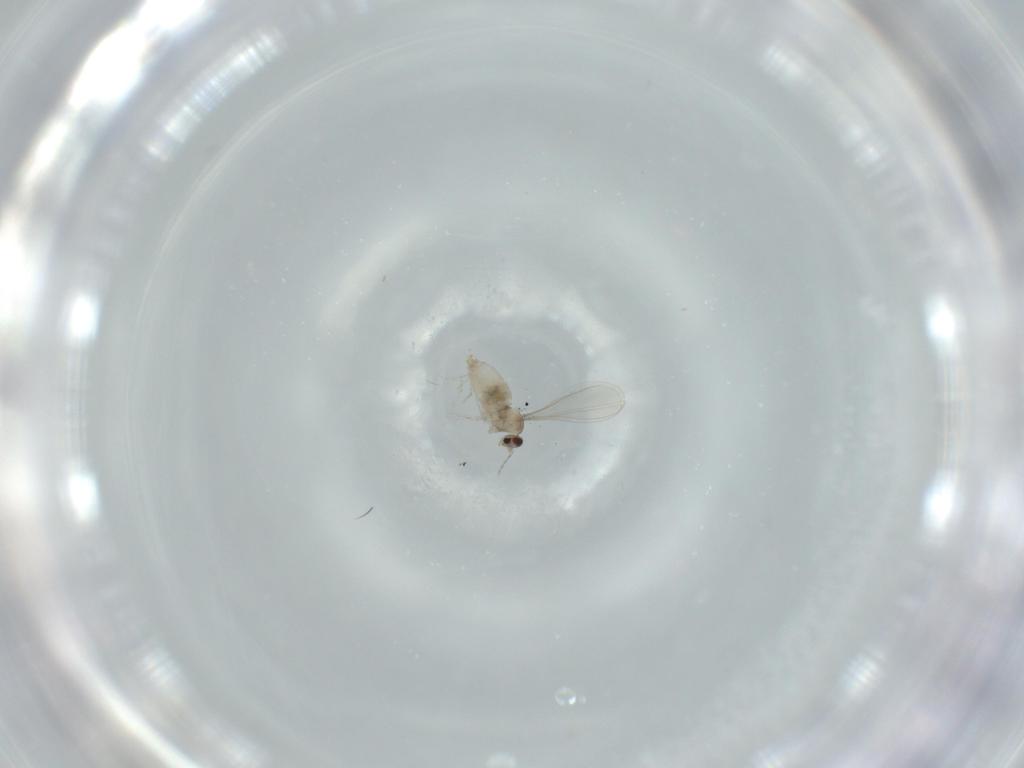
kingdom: Animalia
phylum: Arthropoda
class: Insecta
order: Diptera
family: Cecidomyiidae
